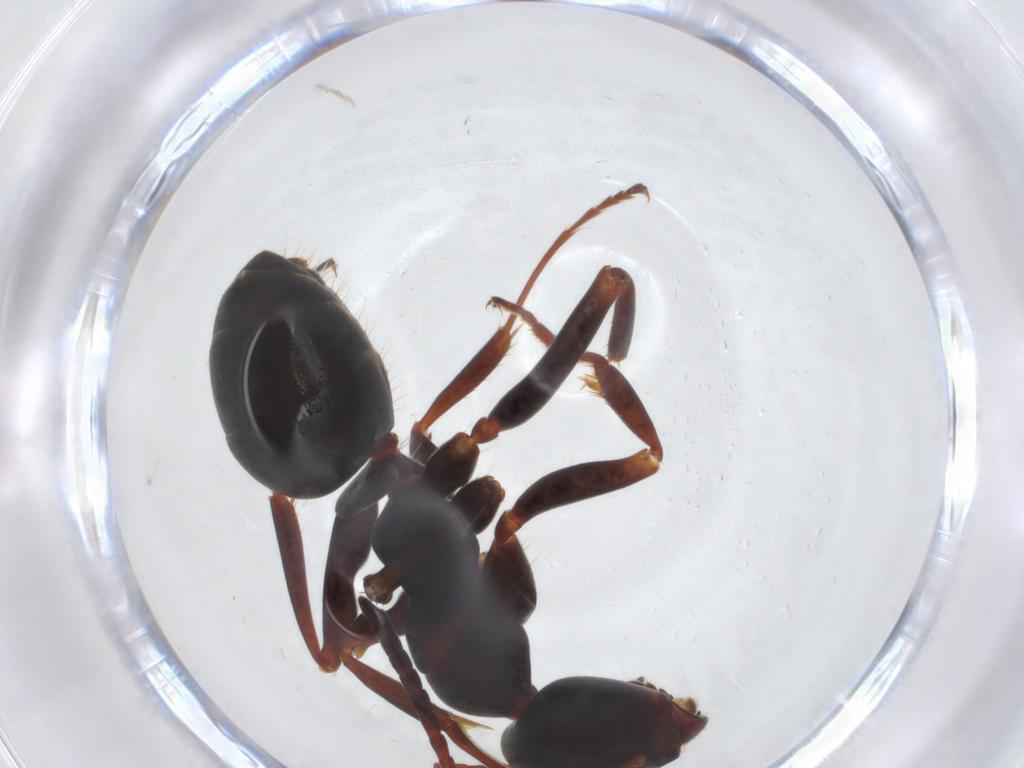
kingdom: Animalia
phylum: Arthropoda
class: Insecta
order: Hymenoptera
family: Formicidae
